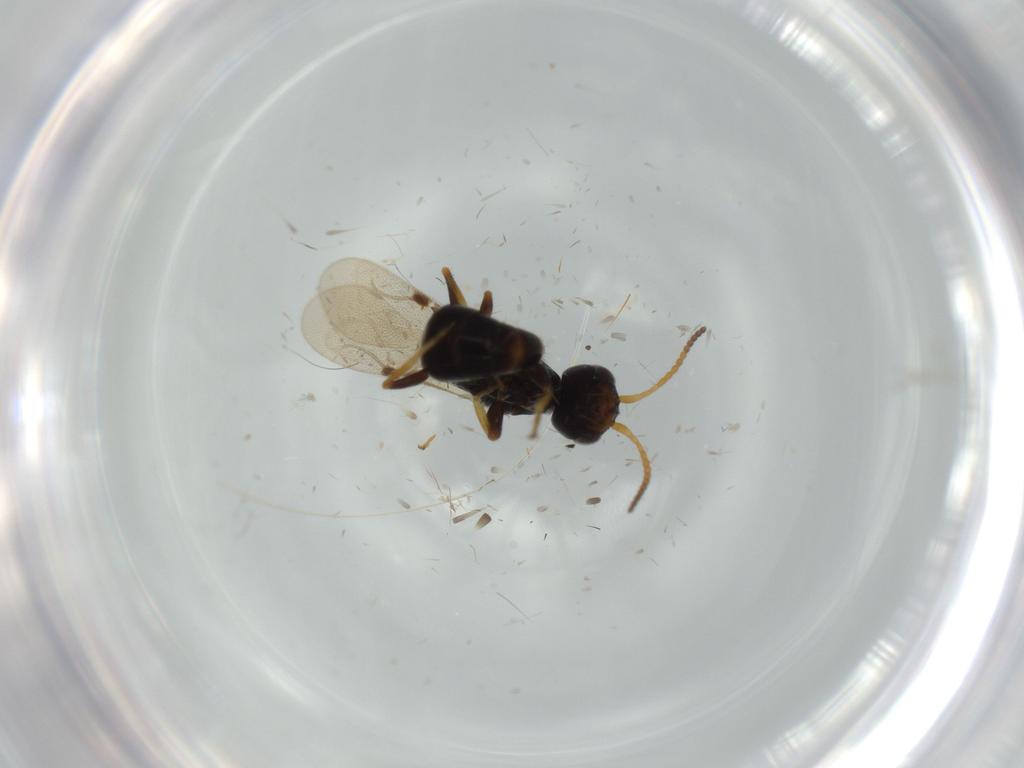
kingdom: Animalia
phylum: Arthropoda
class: Insecta
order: Hymenoptera
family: Bethylidae
